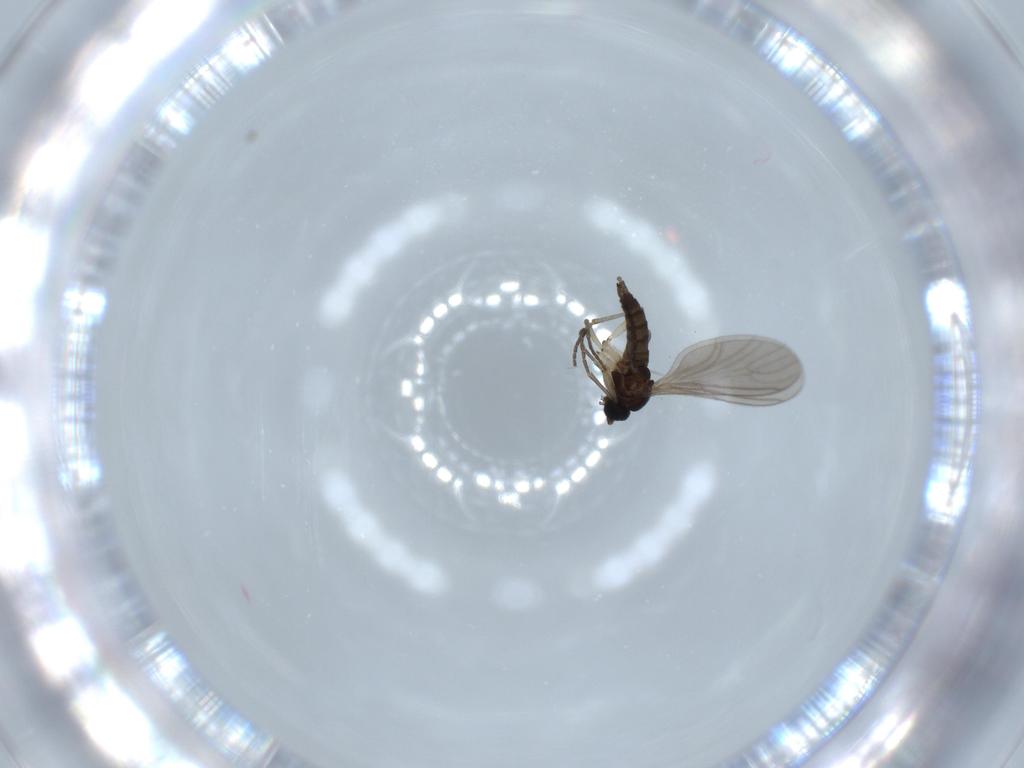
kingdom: Animalia
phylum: Arthropoda
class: Insecta
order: Diptera
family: Sciaridae
